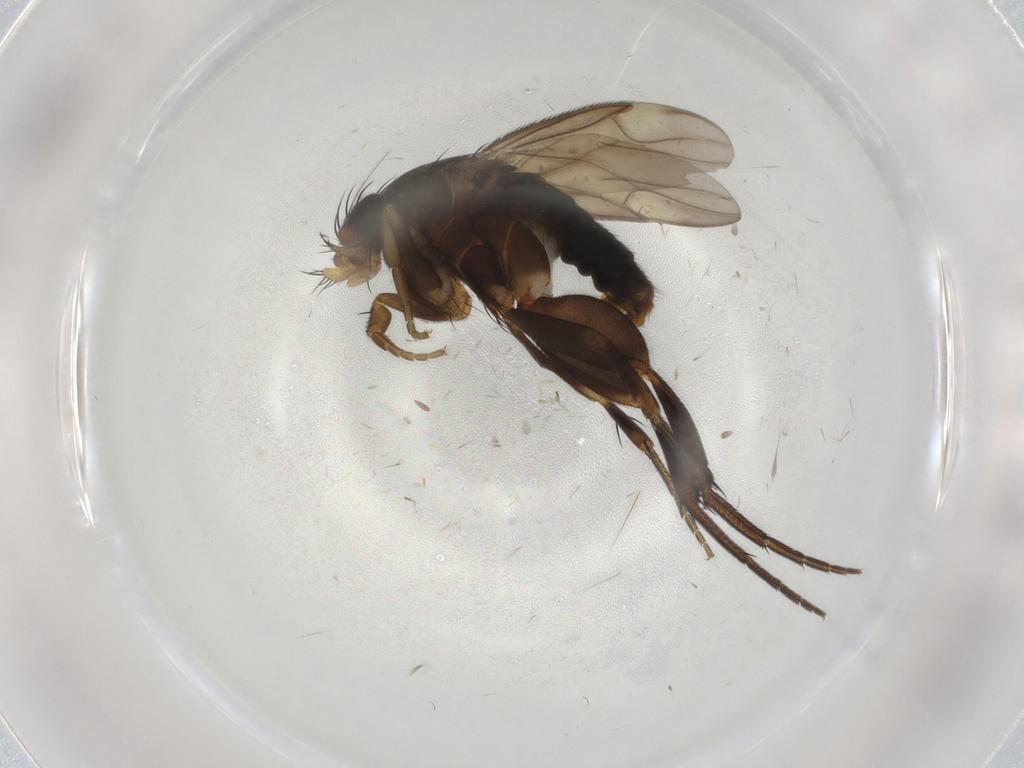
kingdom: Animalia
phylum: Arthropoda
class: Insecta
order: Diptera
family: Phoridae
